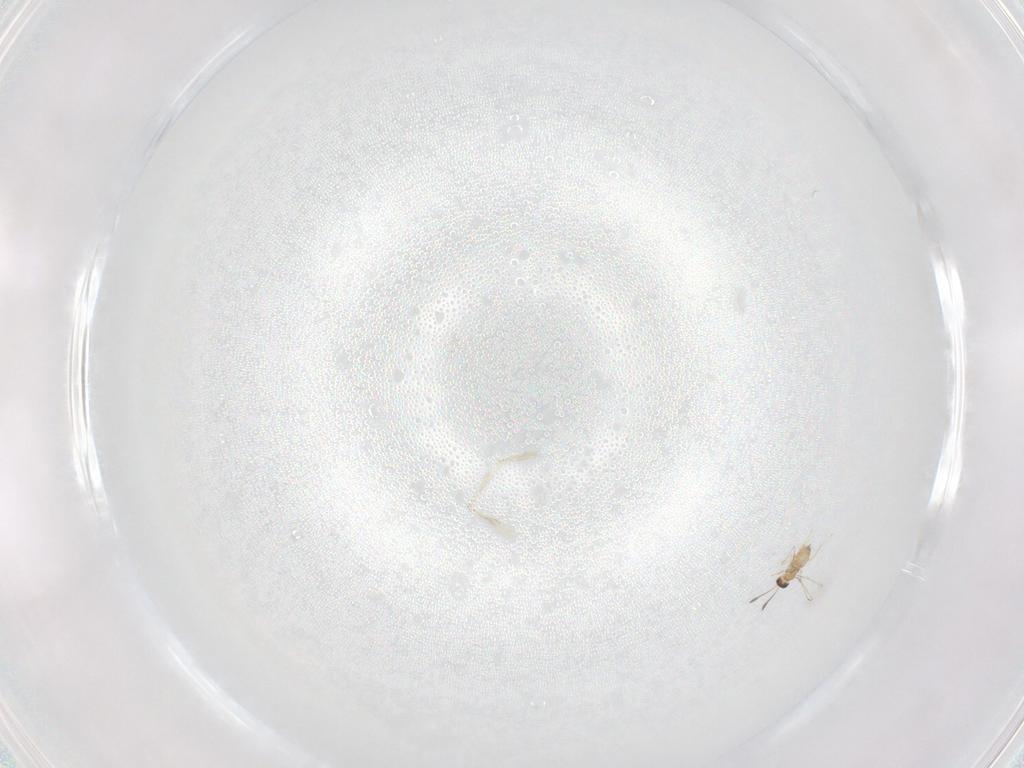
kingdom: Animalia
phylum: Arthropoda
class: Insecta
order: Hymenoptera
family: Mymaridae
